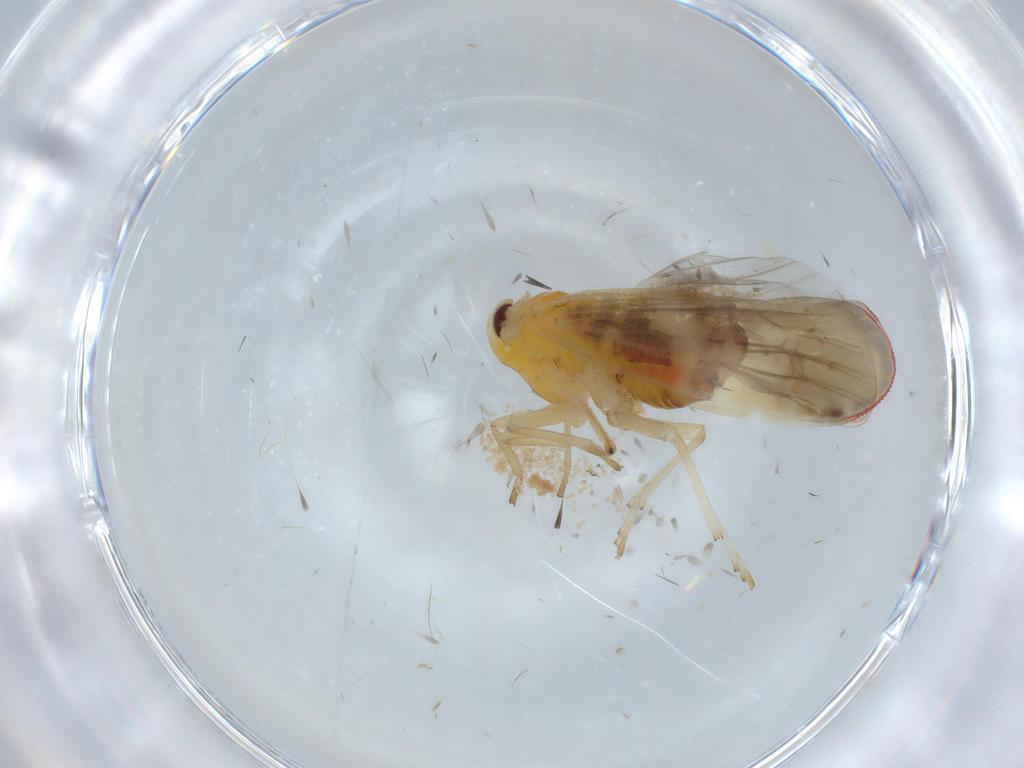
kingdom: Animalia
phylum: Arthropoda
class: Insecta
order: Hemiptera
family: Derbidae
